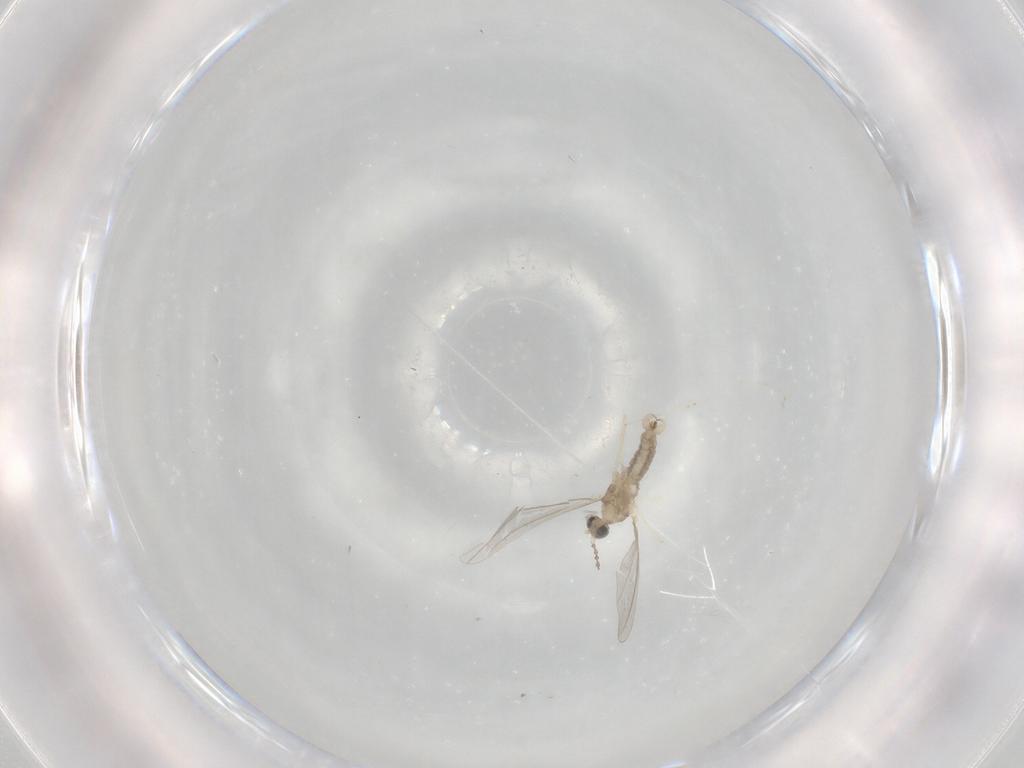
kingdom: Animalia
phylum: Arthropoda
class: Insecta
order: Diptera
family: Cecidomyiidae
